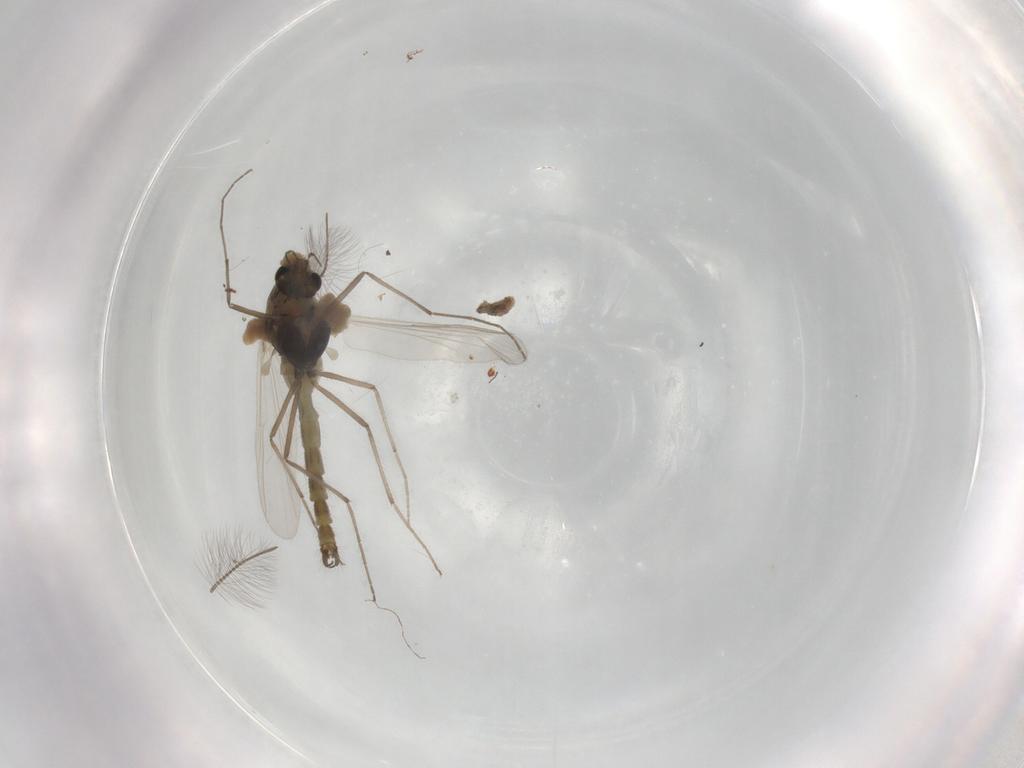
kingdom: Animalia
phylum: Arthropoda
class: Insecta
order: Diptera
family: Chironomidae
